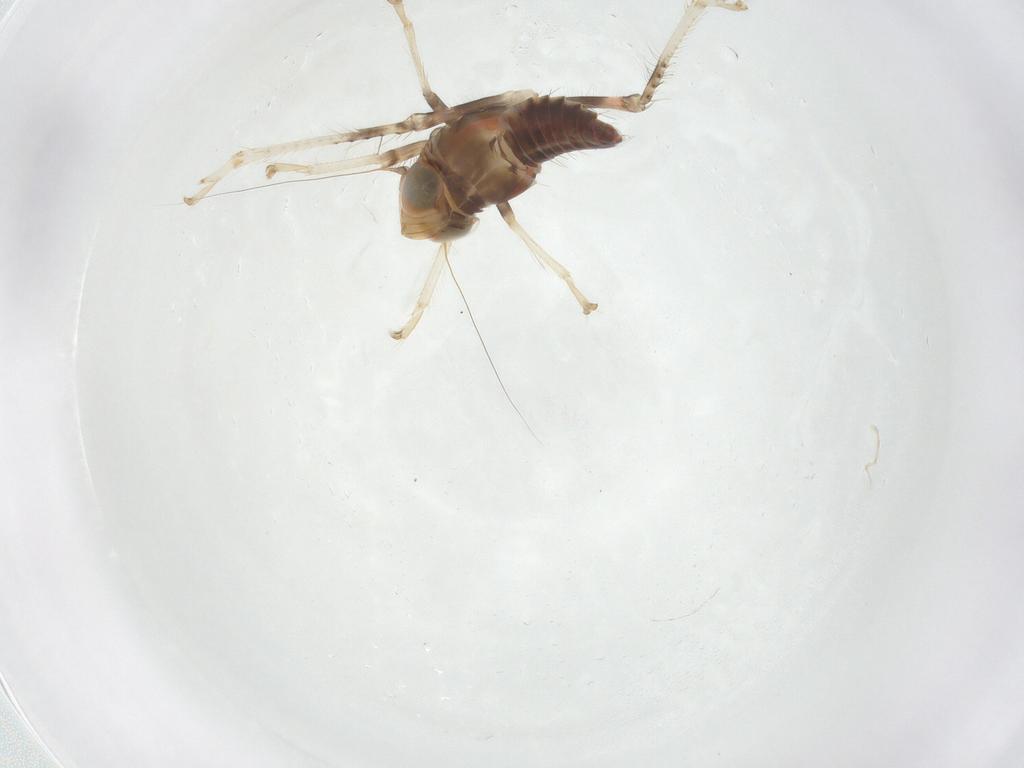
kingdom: Animalia
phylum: Arthropoda
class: Insecta
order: Hemiptera
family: Cicadellidae
